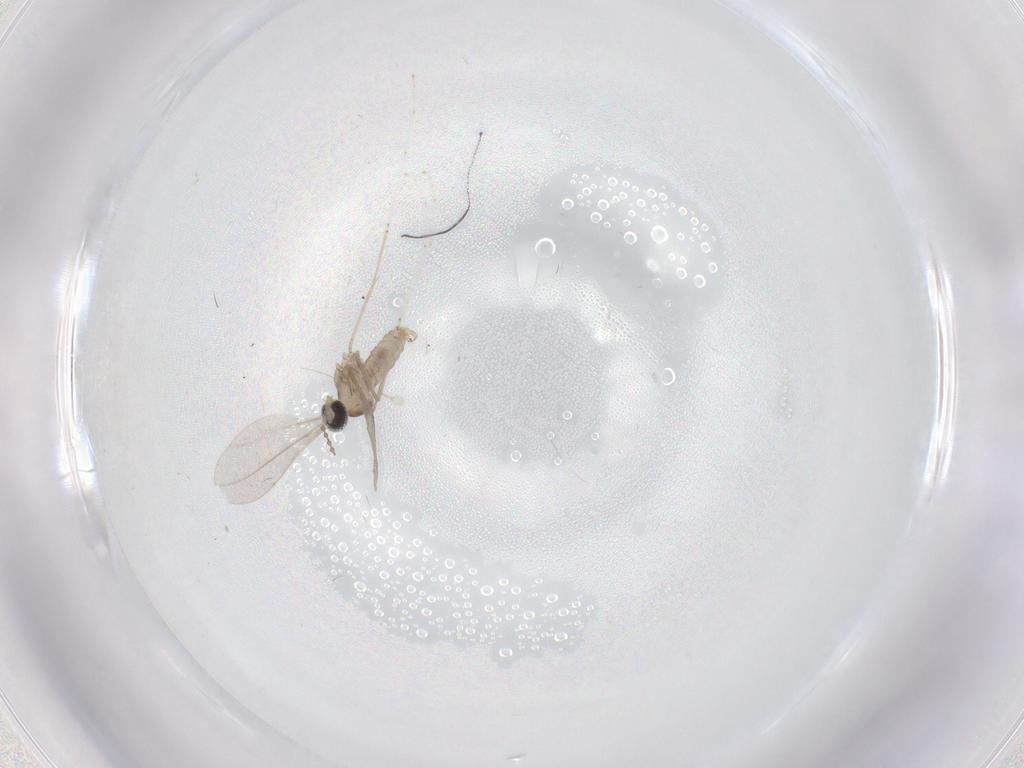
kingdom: Animalia
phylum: Arthropoda
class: Insecta
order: Diptera
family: Cecidomyiidae
